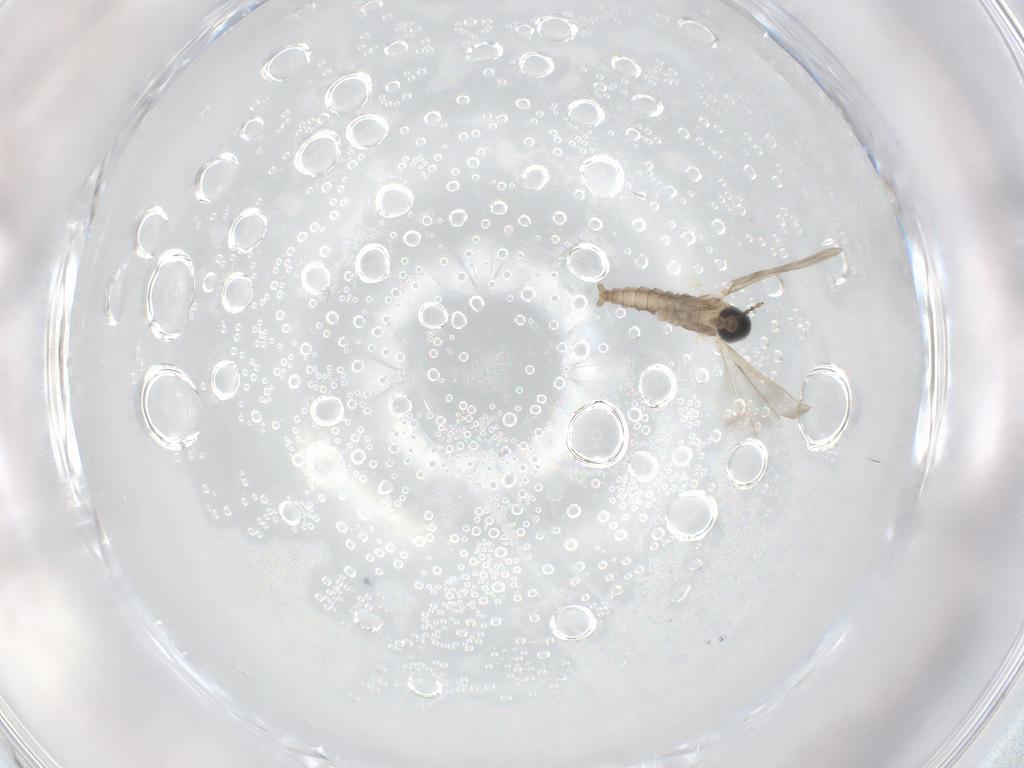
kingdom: Animalia
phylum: Arthropoda
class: Insecta
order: Diptera
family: Cecidomyiidae
